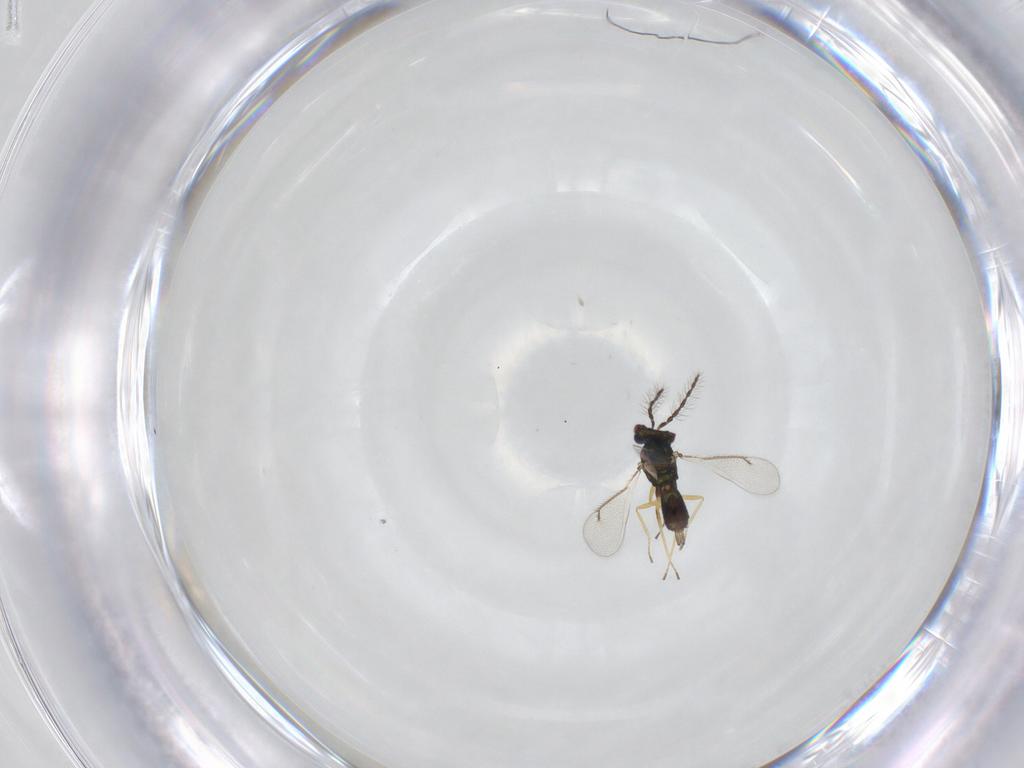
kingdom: Animalia
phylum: Arthropoda
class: Insecta
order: Hymenoptera
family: Eulophidae
